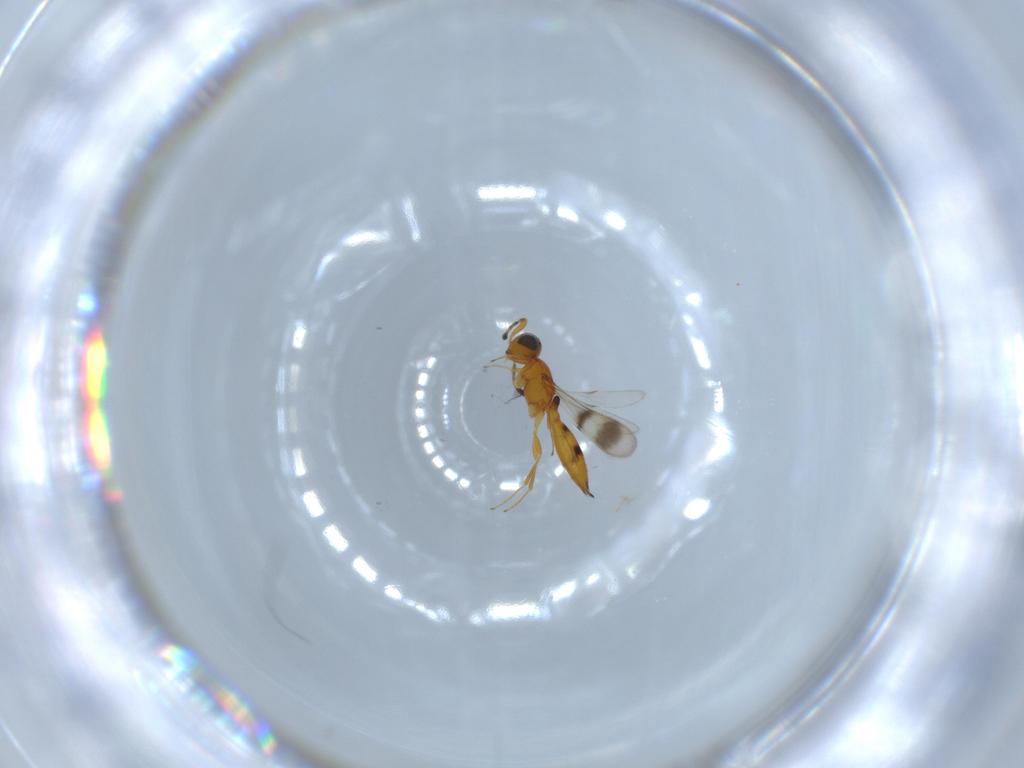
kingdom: Animalia
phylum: Arthropoda
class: Insecta
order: Hymenoptera
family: Scelionidae
